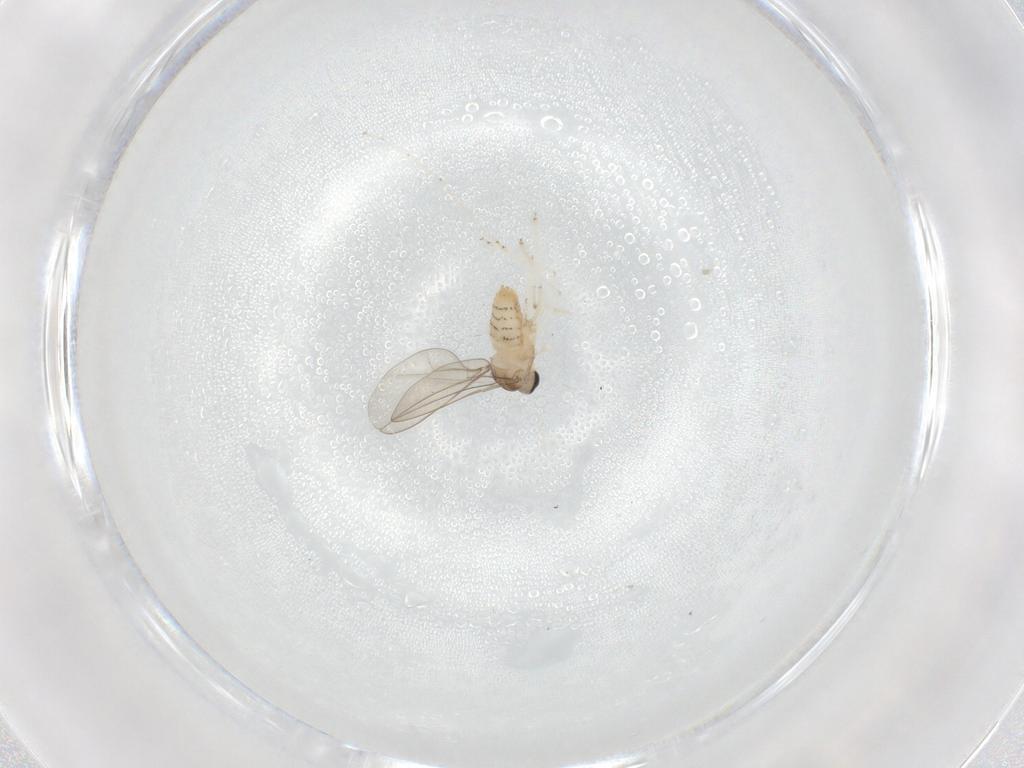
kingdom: Animalia
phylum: Arthropoda
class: Insecta
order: Diptera
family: Cecidomyiidae
